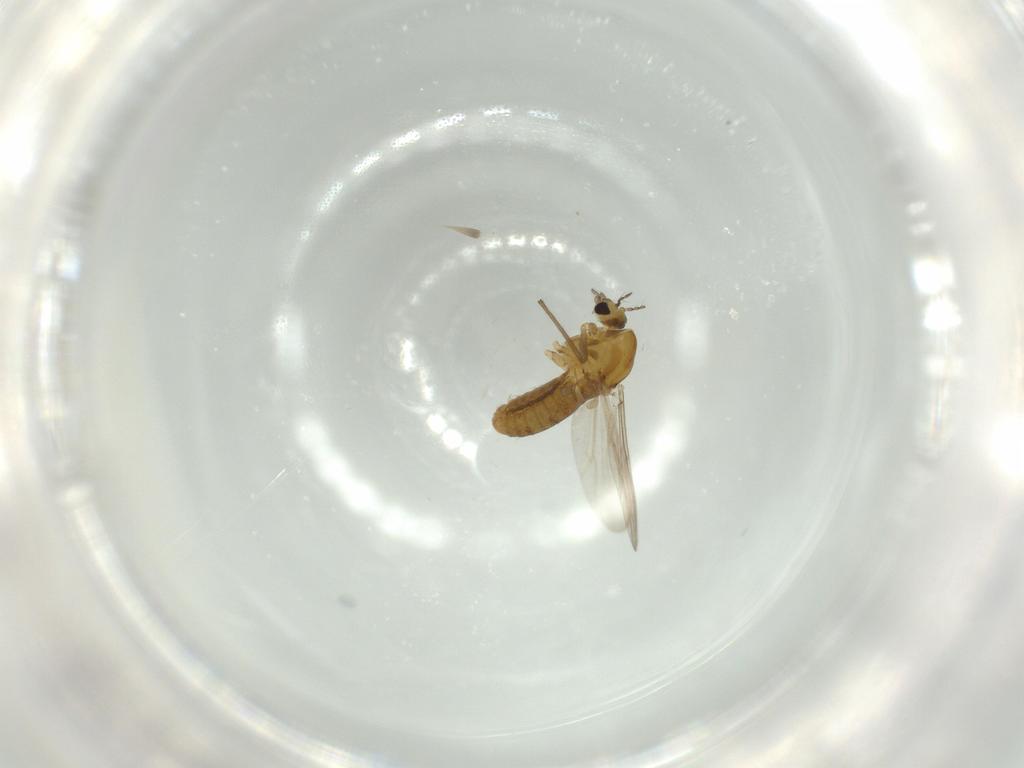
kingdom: Animalia
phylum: Arthropoda
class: Insecta
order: Diptera
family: Chironomidae
